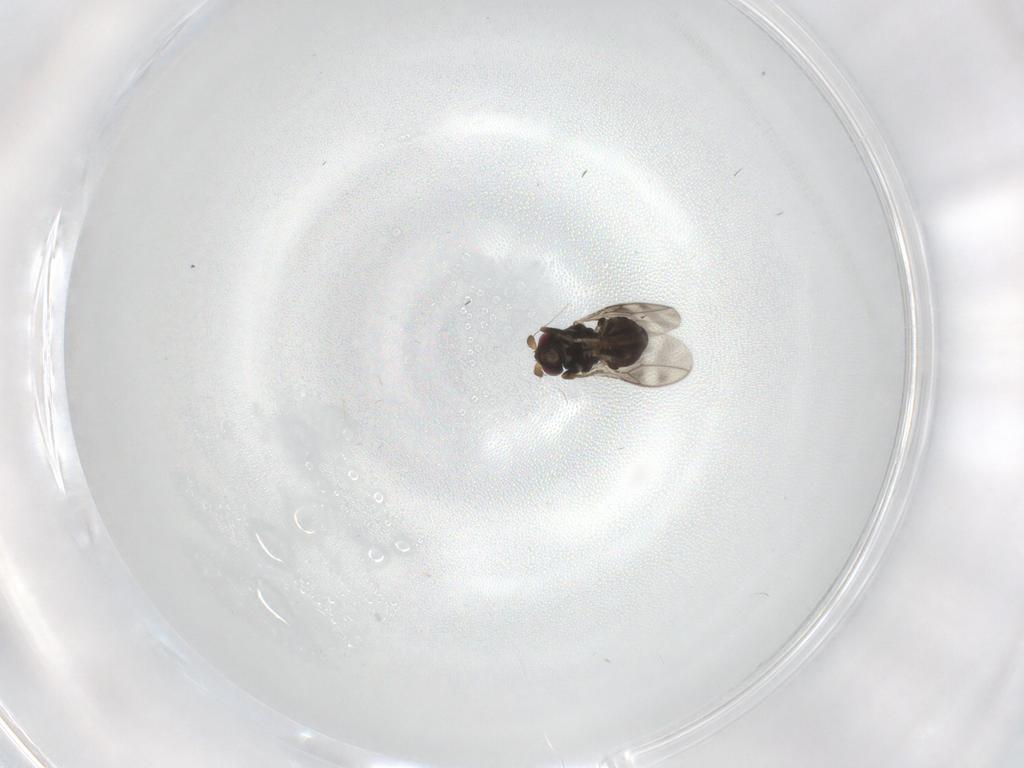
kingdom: Animalia
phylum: Arthropoda
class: Insecta
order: Diptera
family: Sphaeroceridae
